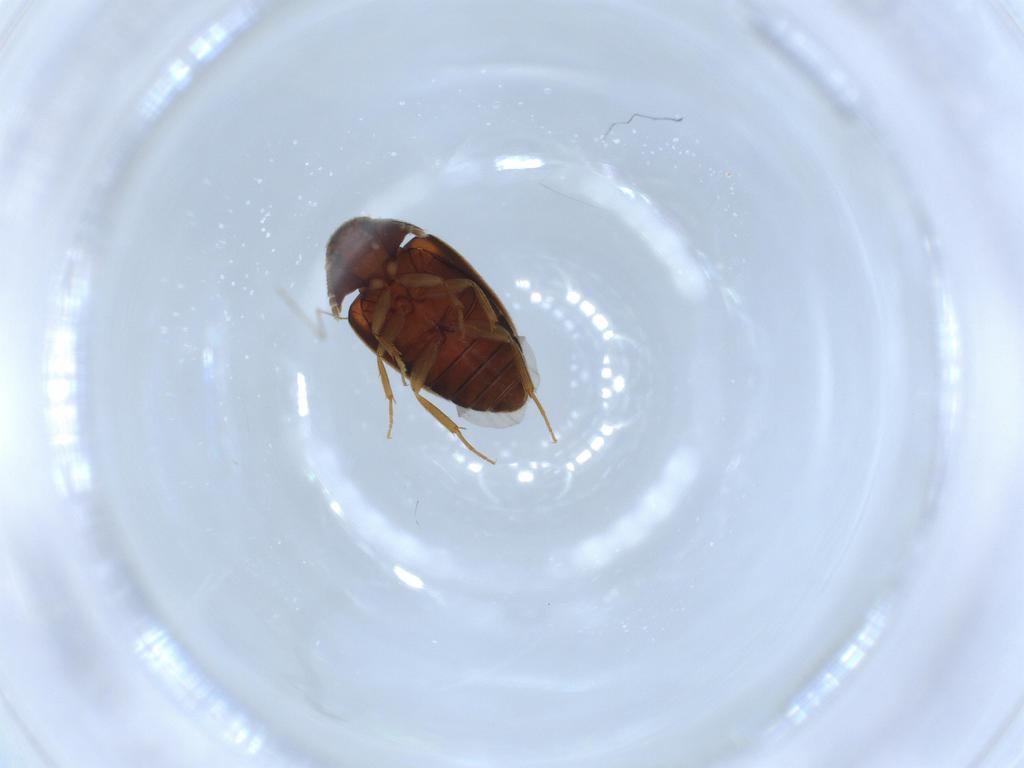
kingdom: Animalia
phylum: Arthropoda
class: Insecta
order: Coleoptera
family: Mycetophagidae
